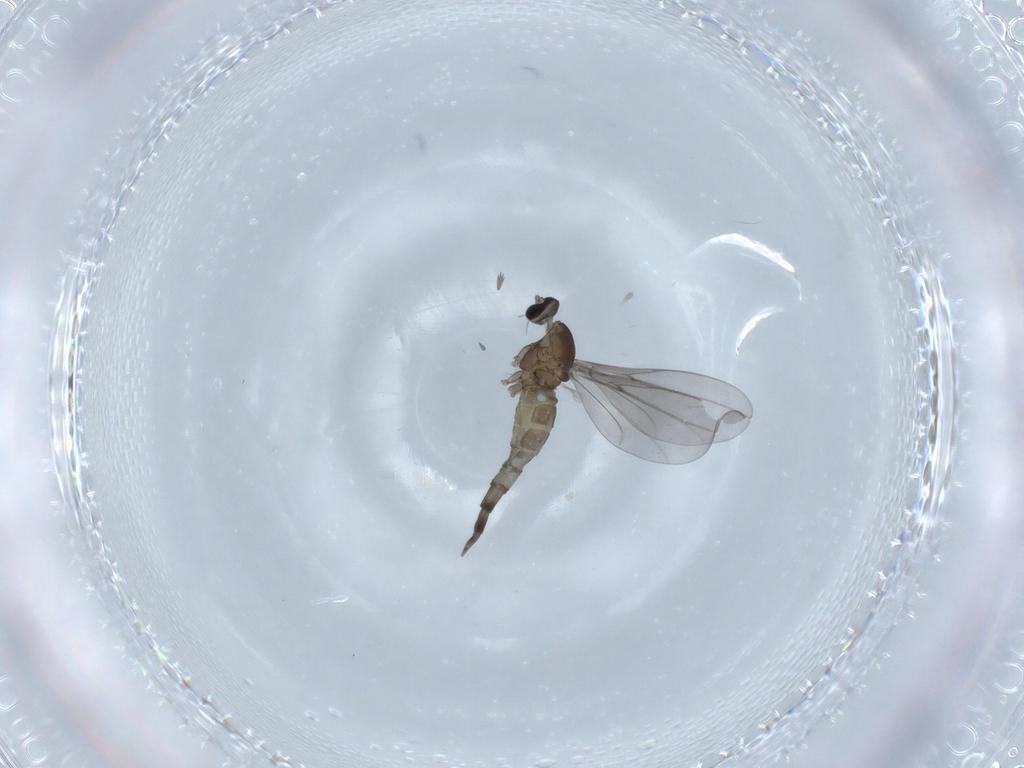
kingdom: Animalia
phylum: Arthropoda
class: Insecta
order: Diptera
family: Cecidomyiidae
